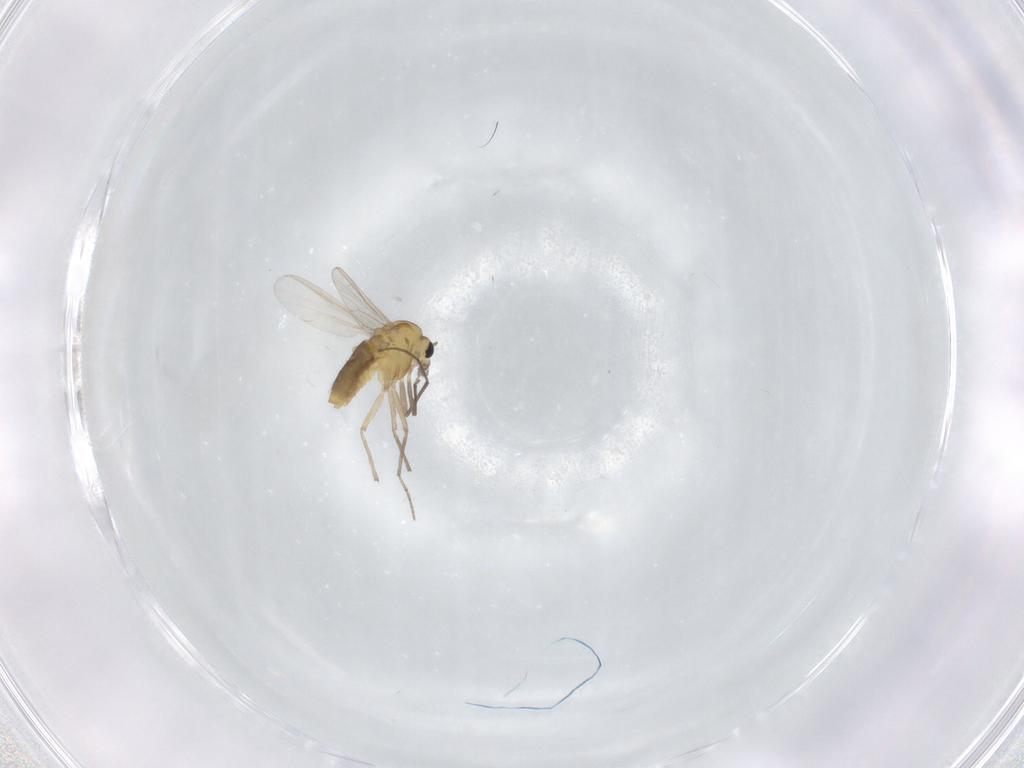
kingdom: Animalia
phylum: Arthropoda
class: Insecta
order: Diptera
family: Chironomidae
